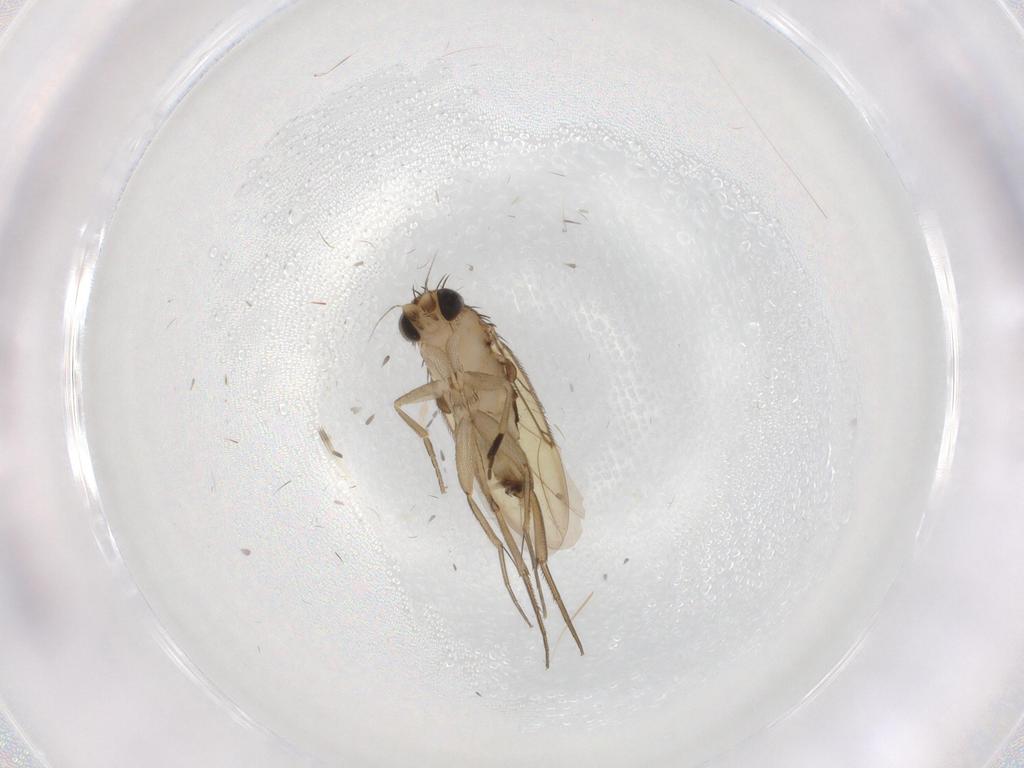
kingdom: Animalia
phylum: Arthropoda
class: Insecta
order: Diptera
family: Phoridae
